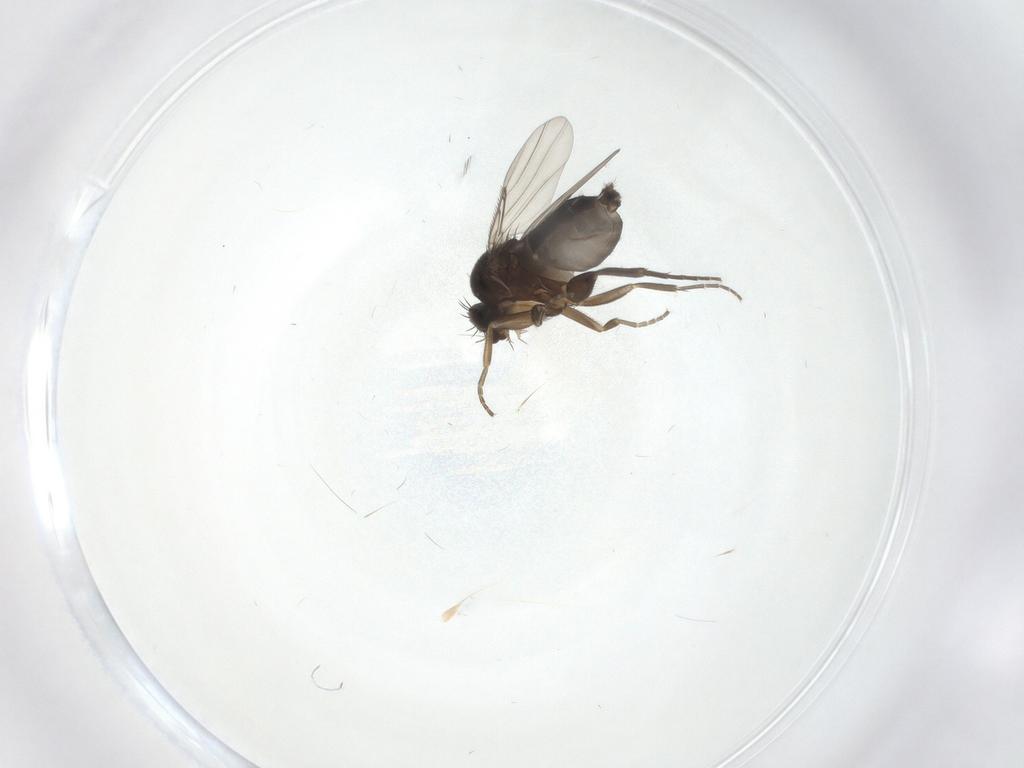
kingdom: Animalia
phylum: Arthropoda
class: Insecta
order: Diptera
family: Phoridae
